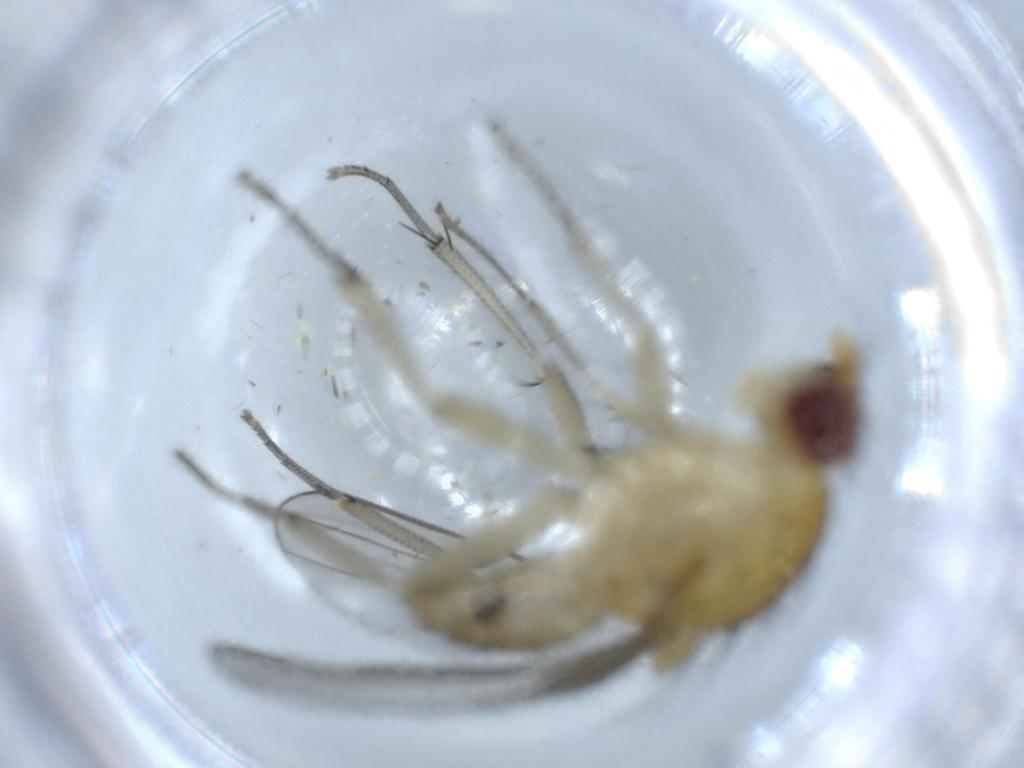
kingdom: Animalia
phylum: Arthropoda
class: Insecta
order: Diptera
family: Lauxaniidae
